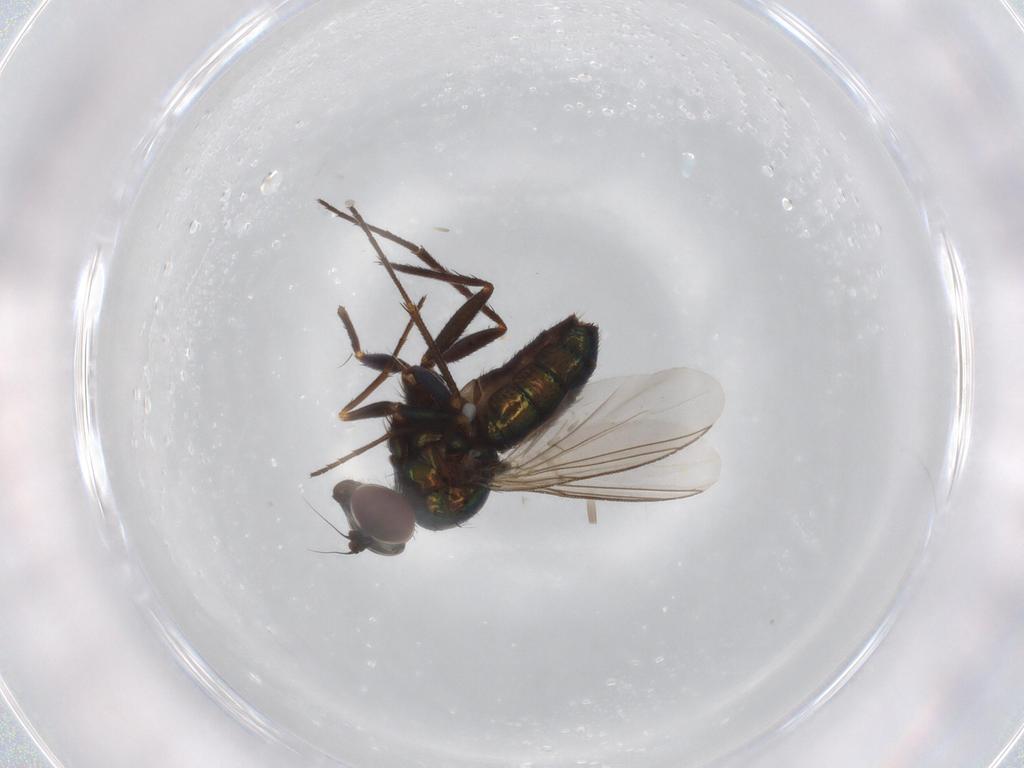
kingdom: Animalia
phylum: Arthropoda
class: Insecta
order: Diptera
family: Dolichopodidae
